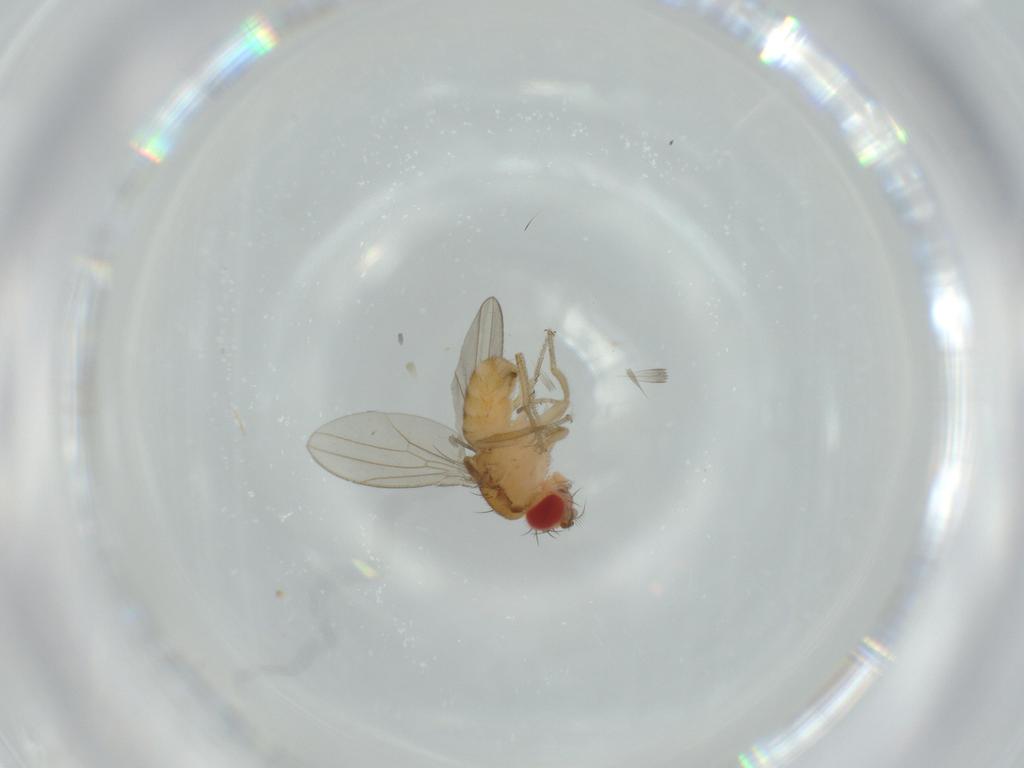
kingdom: Animalia
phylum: Arthropoda
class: Insecta
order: Diptera
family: Drosophilidae
